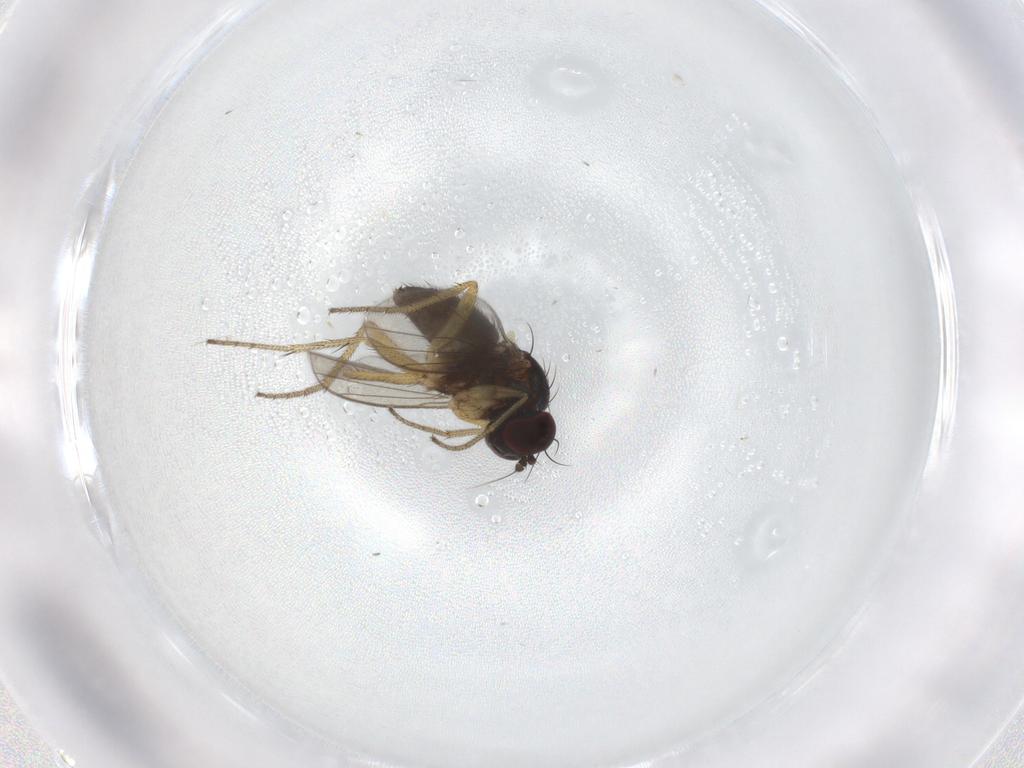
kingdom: Animalia
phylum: Arthropoda
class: Insecta
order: Diptera
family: Dolichopodidae
